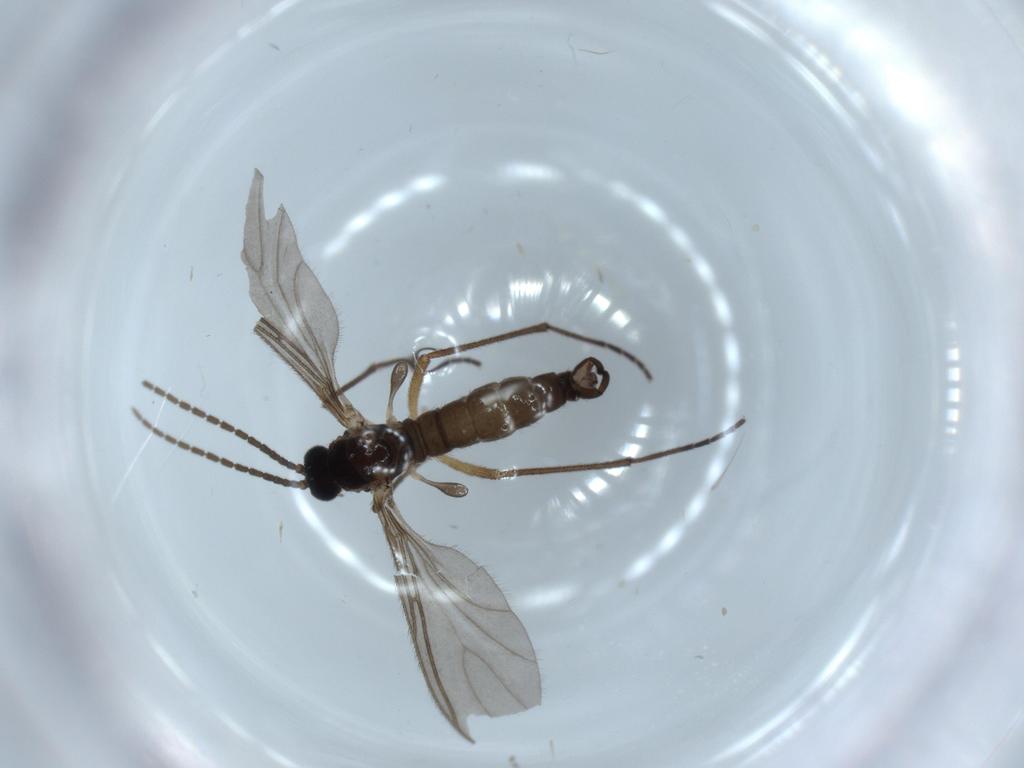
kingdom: Animalia
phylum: Arthropoda
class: Insecta
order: Diptera
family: Sciaridae
